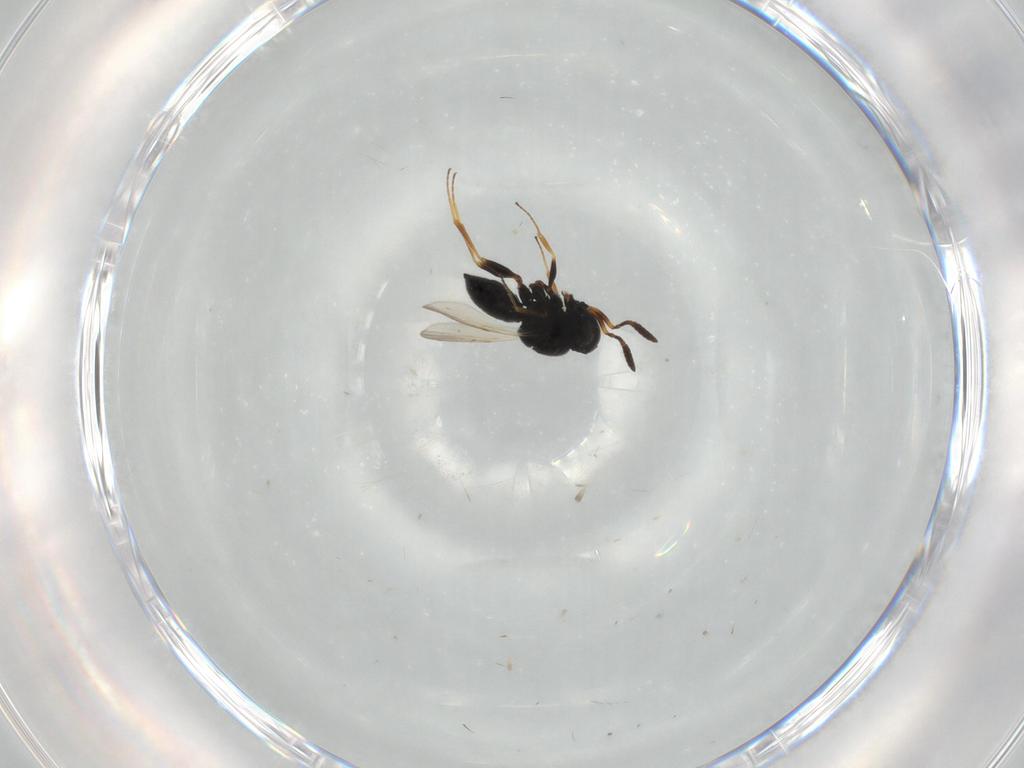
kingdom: Animalia
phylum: Arthropoda
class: Insecta
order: Hymenoptera
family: Scelionidae
